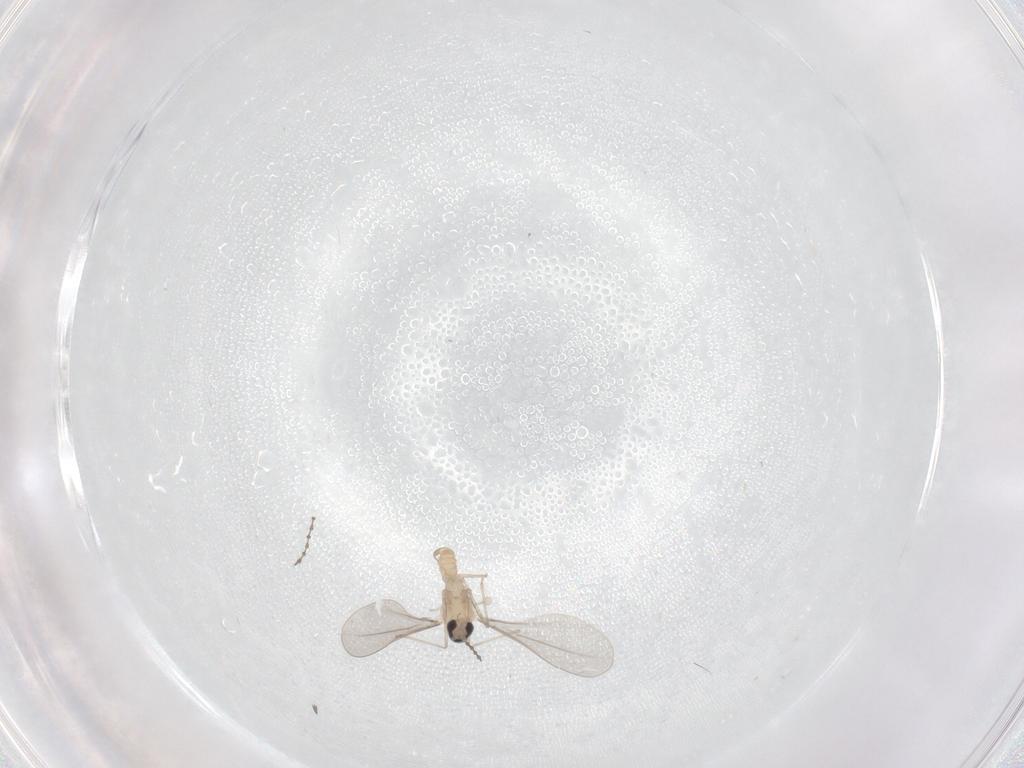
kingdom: Animalia
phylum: Arthropoda
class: Insecta
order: Diptera
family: Cecidomyiidae
